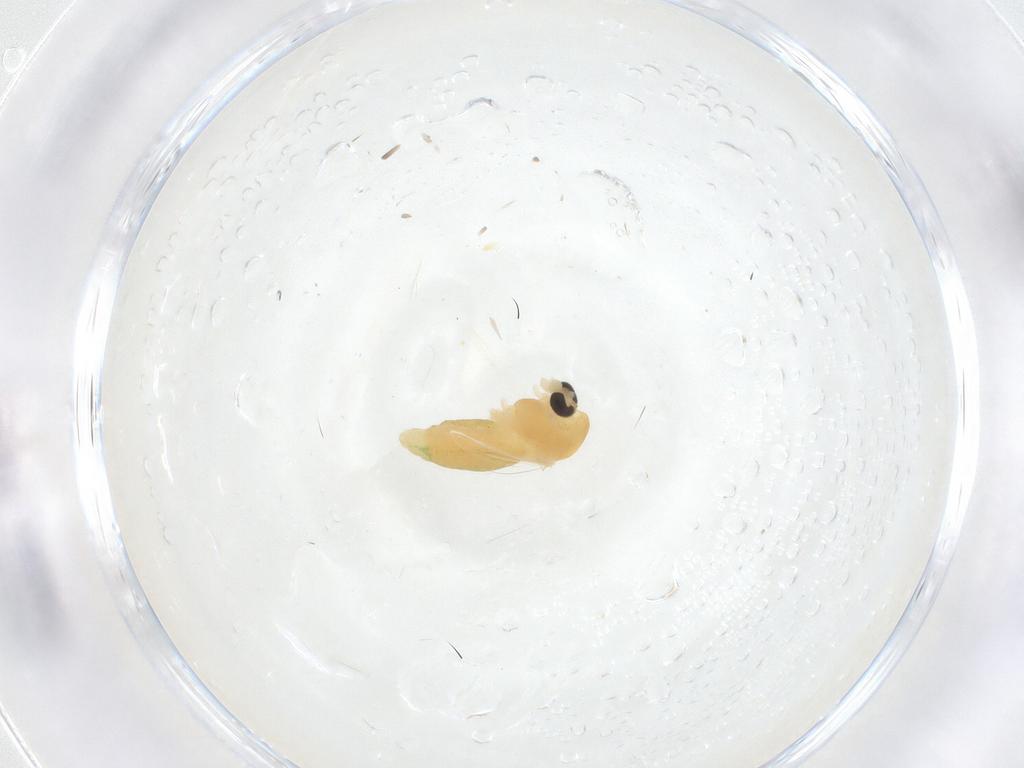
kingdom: Animalia
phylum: Arthropoda
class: Insecta
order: Diptera
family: Chironomidae
